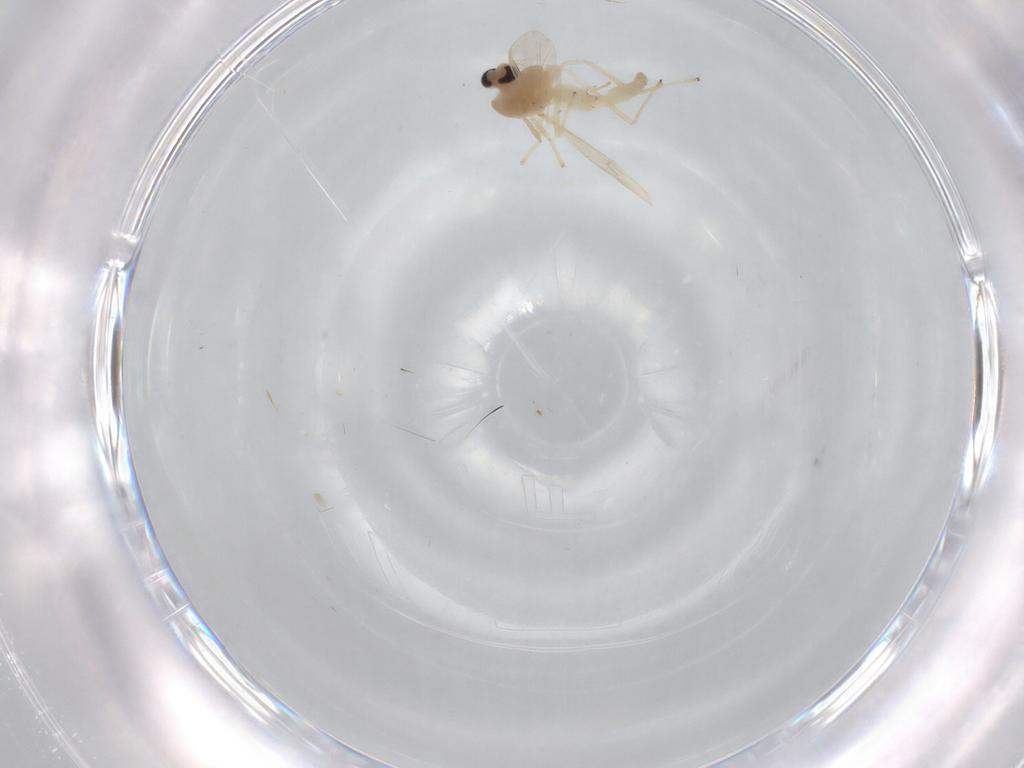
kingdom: Animalia
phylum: Arthropoda
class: Insecta
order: Diptera
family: Chironomidae
